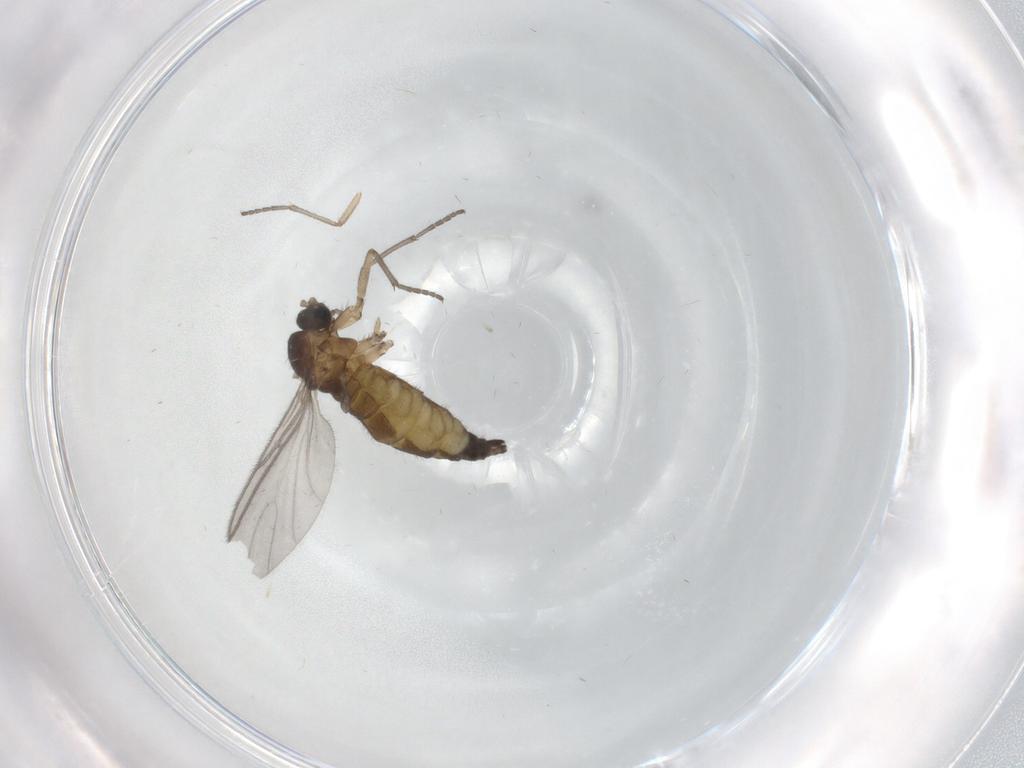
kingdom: Animalia
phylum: Arthropoda
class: Insecta
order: Diptera
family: Sciaridae
